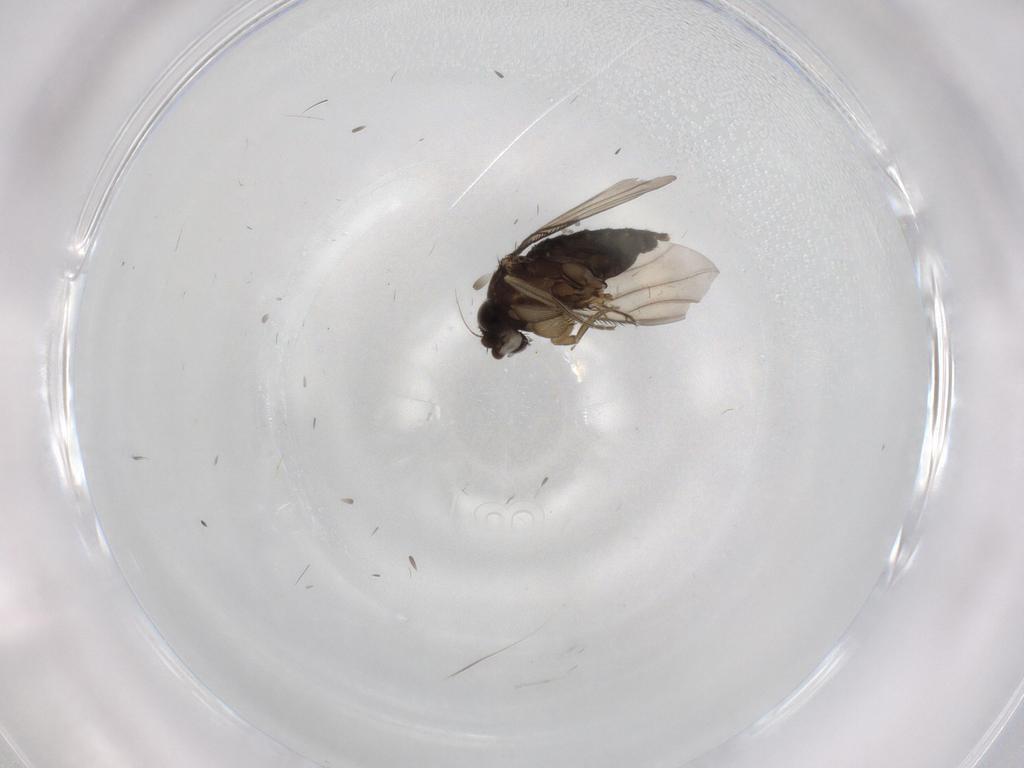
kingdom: Animalia
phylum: Arthropoda
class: Insecta
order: Diptera
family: Phoridae
